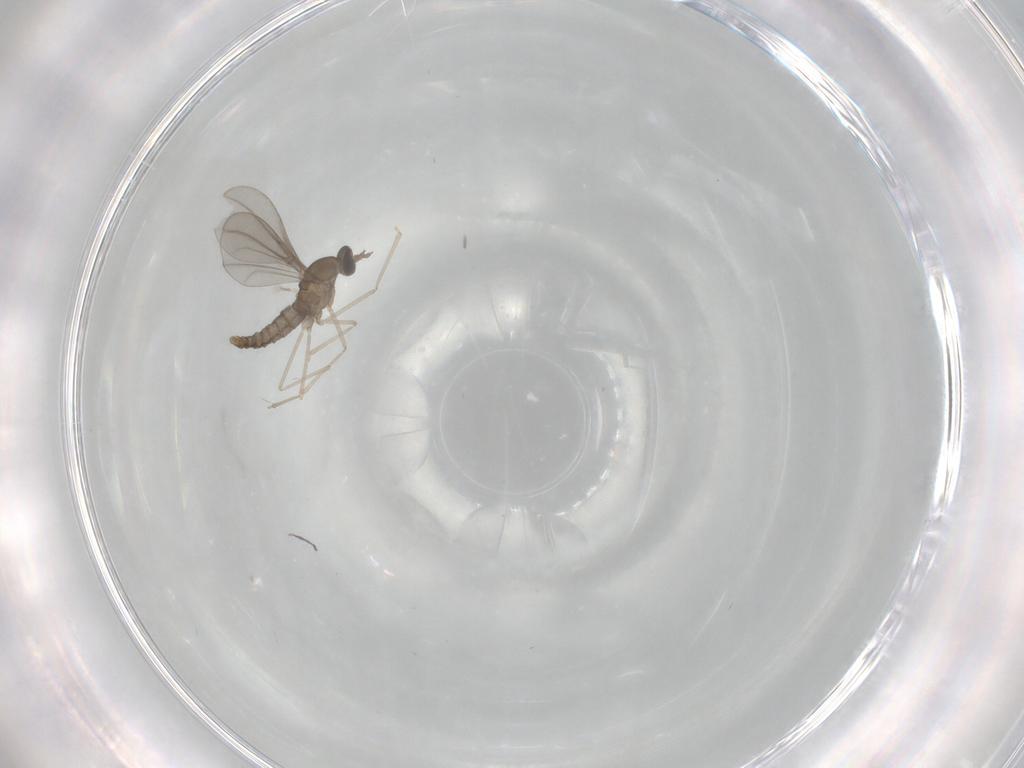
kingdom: Animalia
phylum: Arthropoda
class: Insecta
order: Diptera
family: Cecidomyiidae
